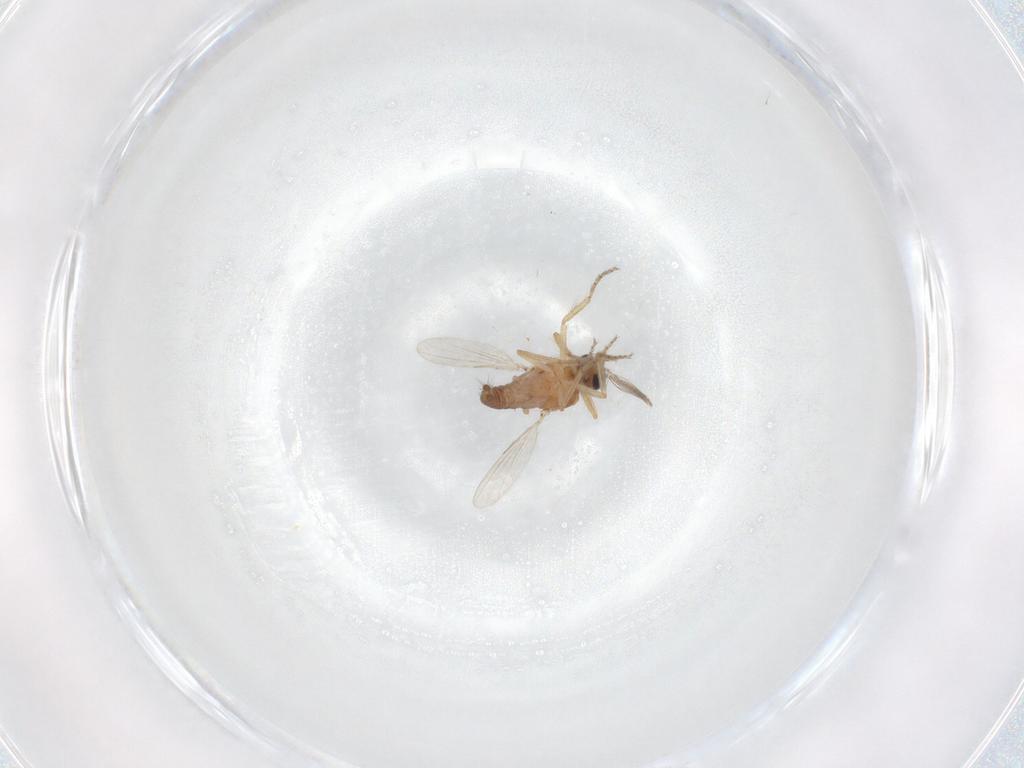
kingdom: Animalia
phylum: Arthropoda
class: Insecta
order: Diptera
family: Ceratopogonidae
